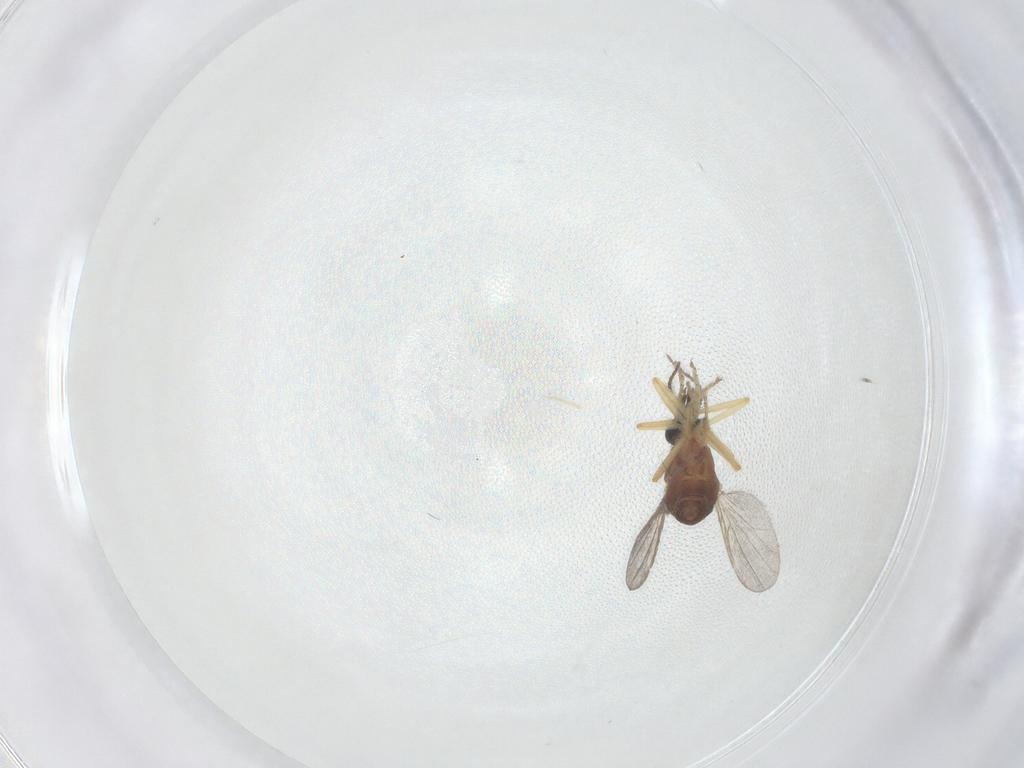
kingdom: Animalia
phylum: Arthropoda
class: Insecta
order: Diptera
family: Ceratopogonidae
